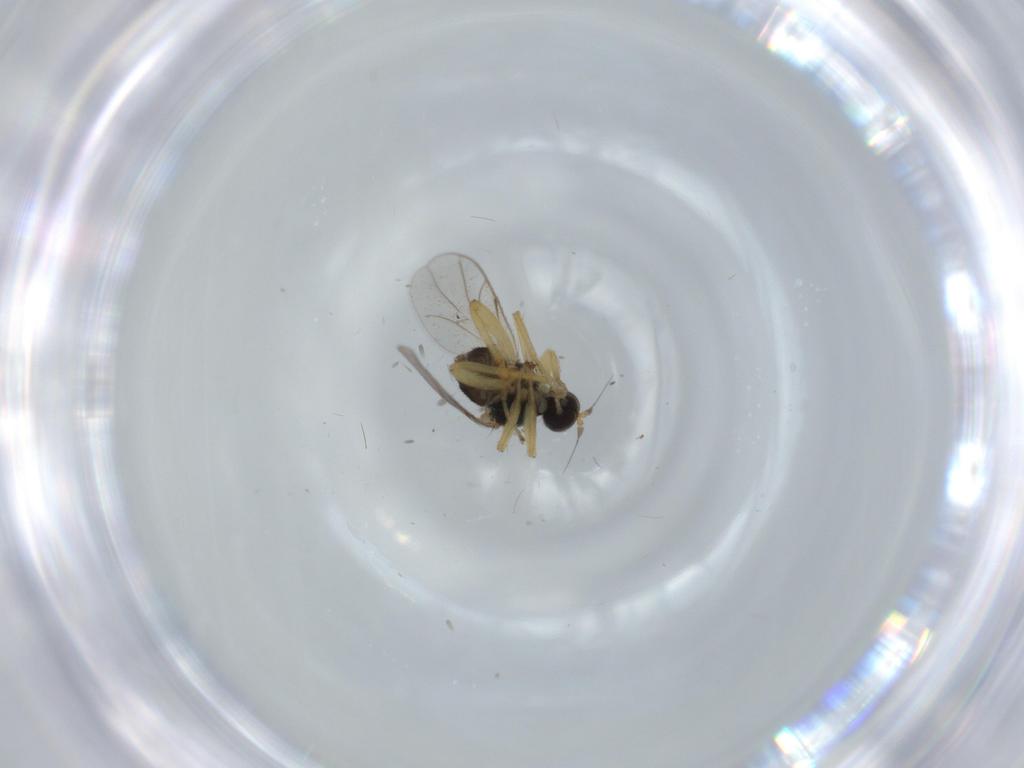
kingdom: Animalia
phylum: Arthropoda
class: Insecta
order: Diptera
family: Hybotidae
